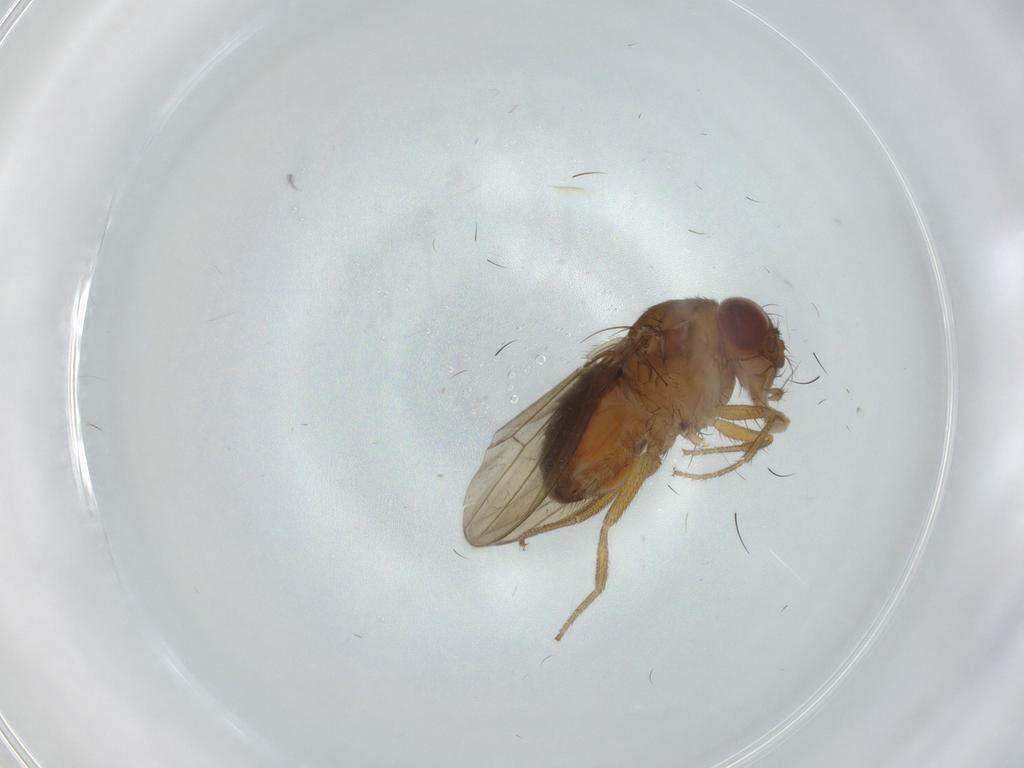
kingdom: Animalia
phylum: Arthropoda
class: Insecta
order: Diptera
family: Drosophilidae
